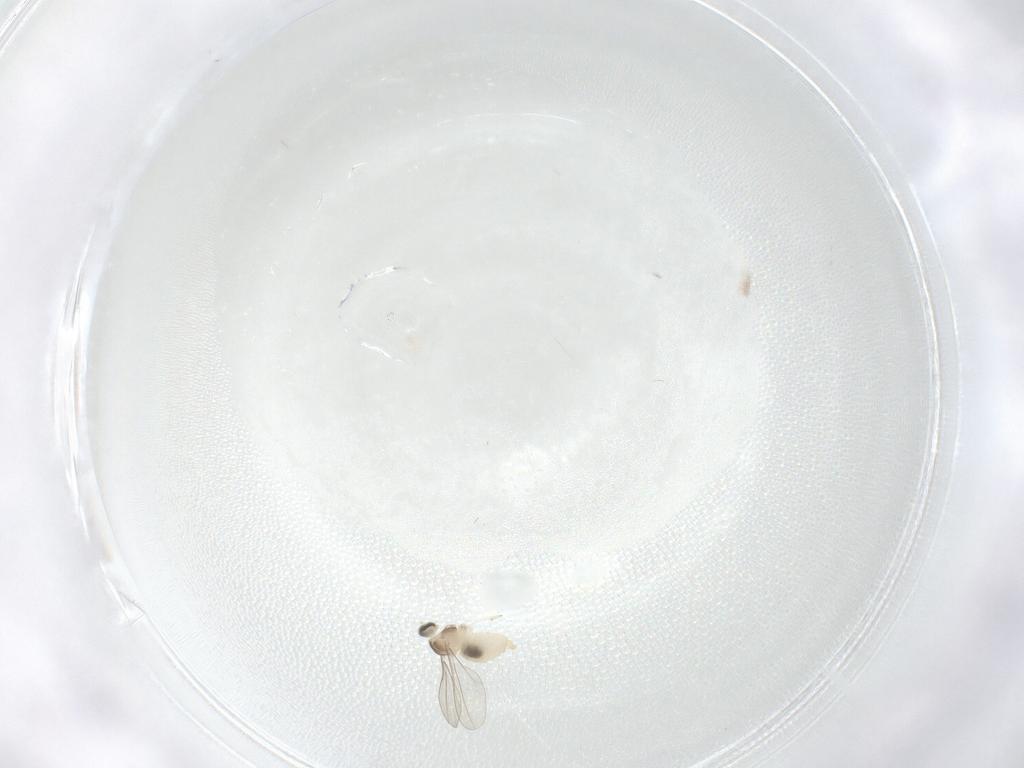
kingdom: Animalia
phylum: Arthropoda
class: Insecta
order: Diptera
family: Cecidomyiidae
